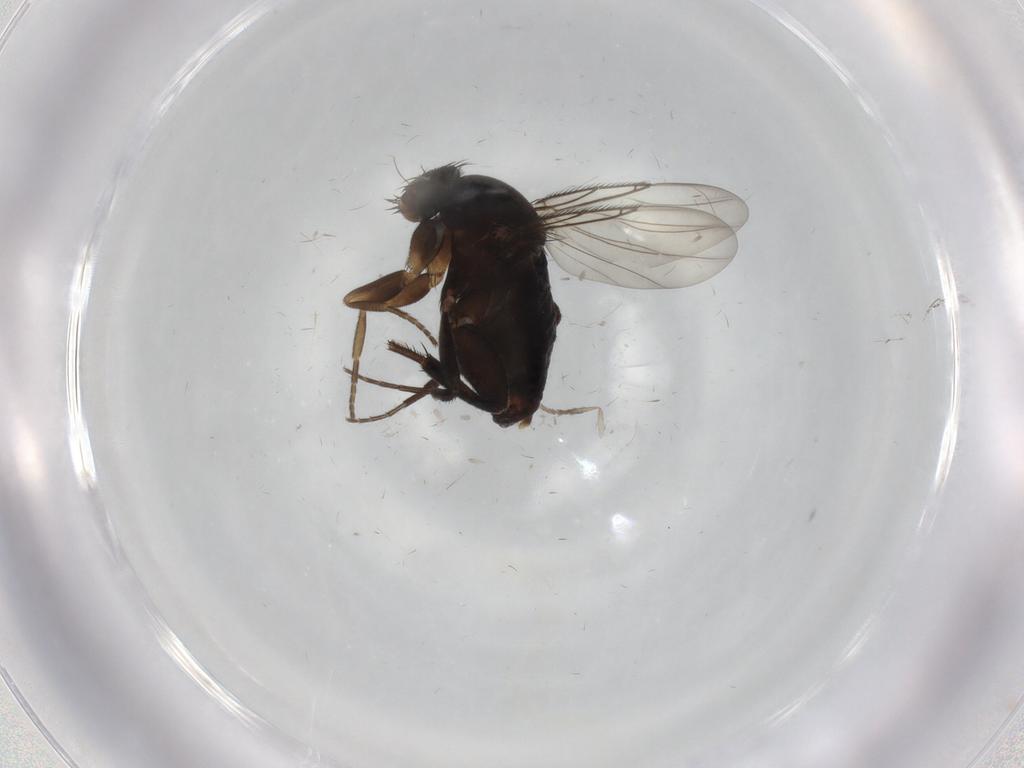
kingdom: Animalia
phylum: Arthropoda
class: Insecta
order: Diptera
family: Phoridae
